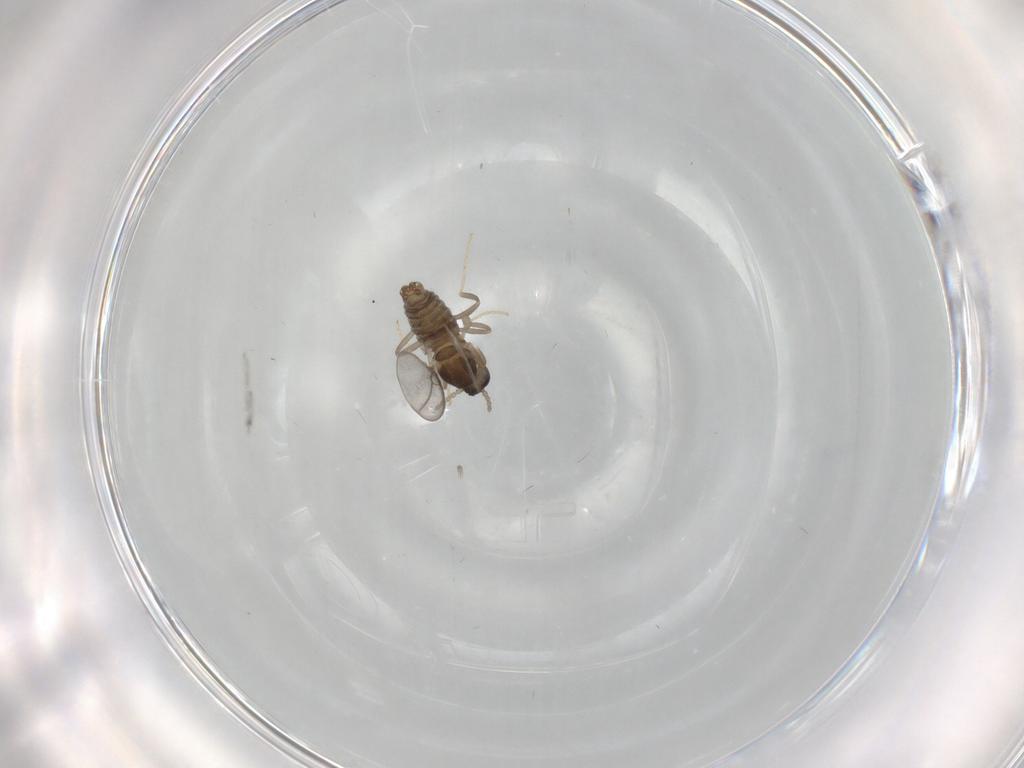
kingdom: Animalia
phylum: Arthropoda
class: Insecta
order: Diptera
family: Cecidomyiidae
